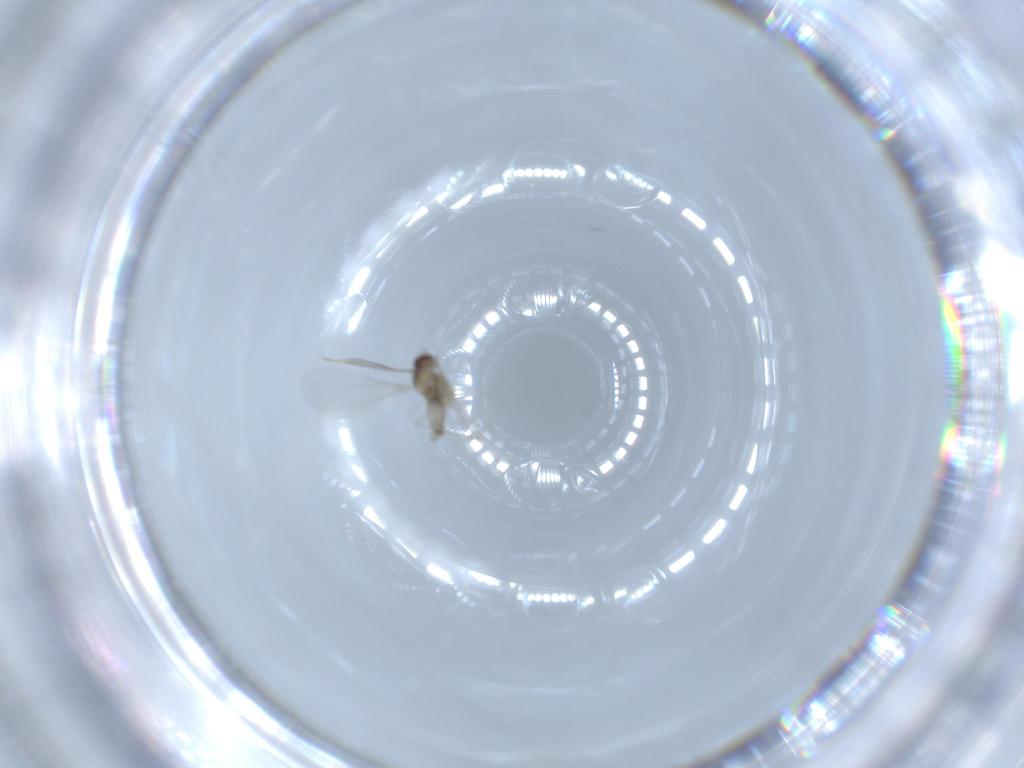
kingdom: Animalia
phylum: Arthropoda
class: Insecta
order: Diptera
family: Cecidomyiidae
